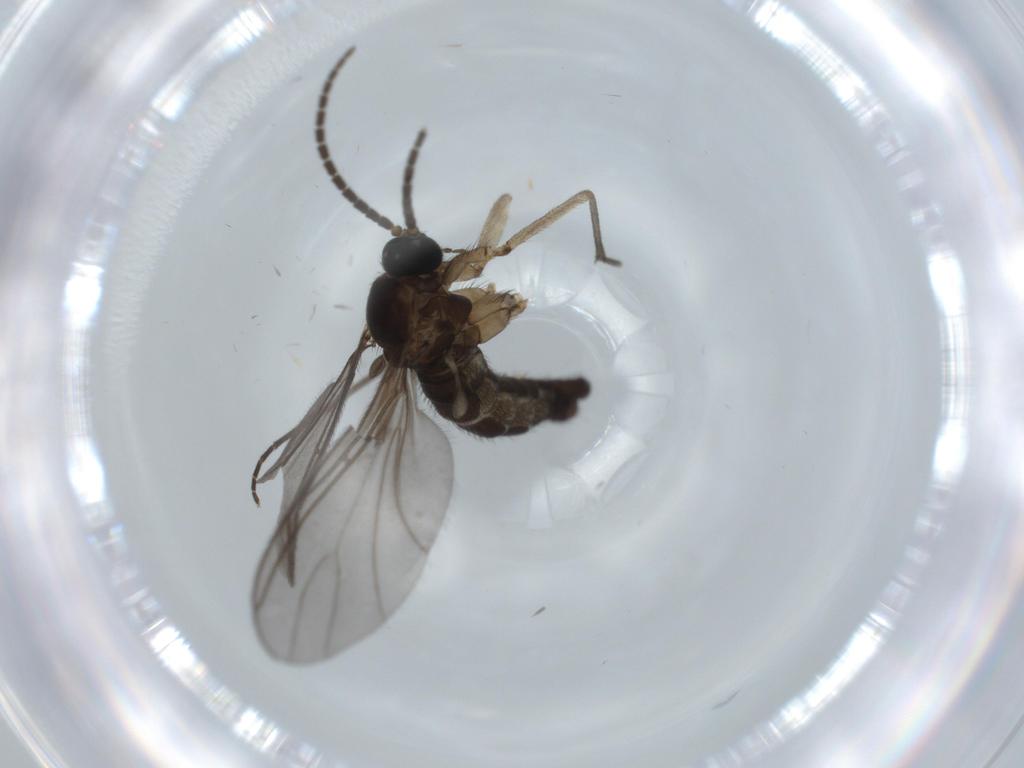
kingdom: Animalia
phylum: Arthropoda
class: Insecta
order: Diptera
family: Sciaridae
